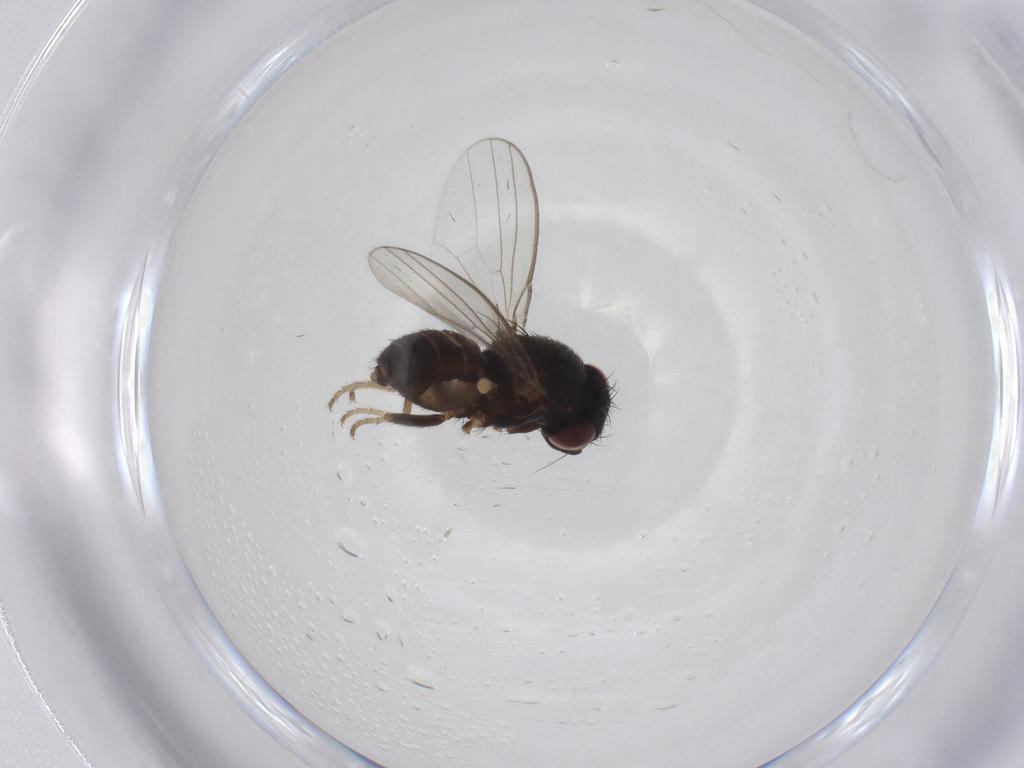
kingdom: Animalia
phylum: Arthropoda
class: Insecta
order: Diptera
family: Milichiidae
